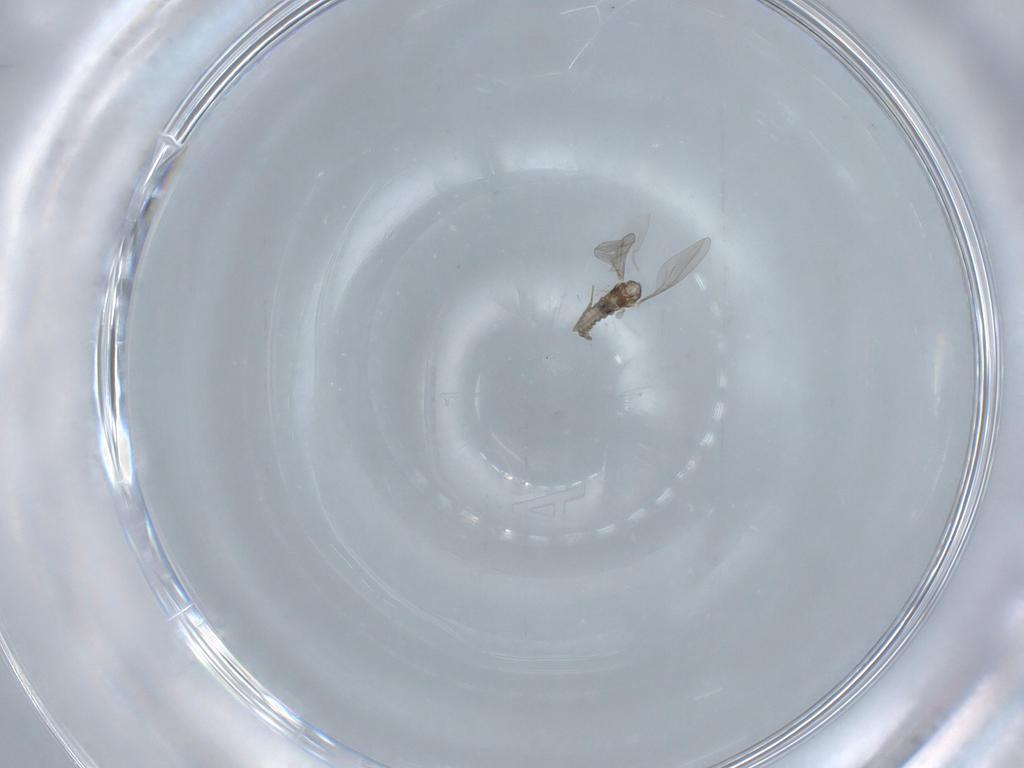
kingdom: Animalia
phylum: Arthropoda
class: Insecta
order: Diptera
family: Cecidomyiidae
